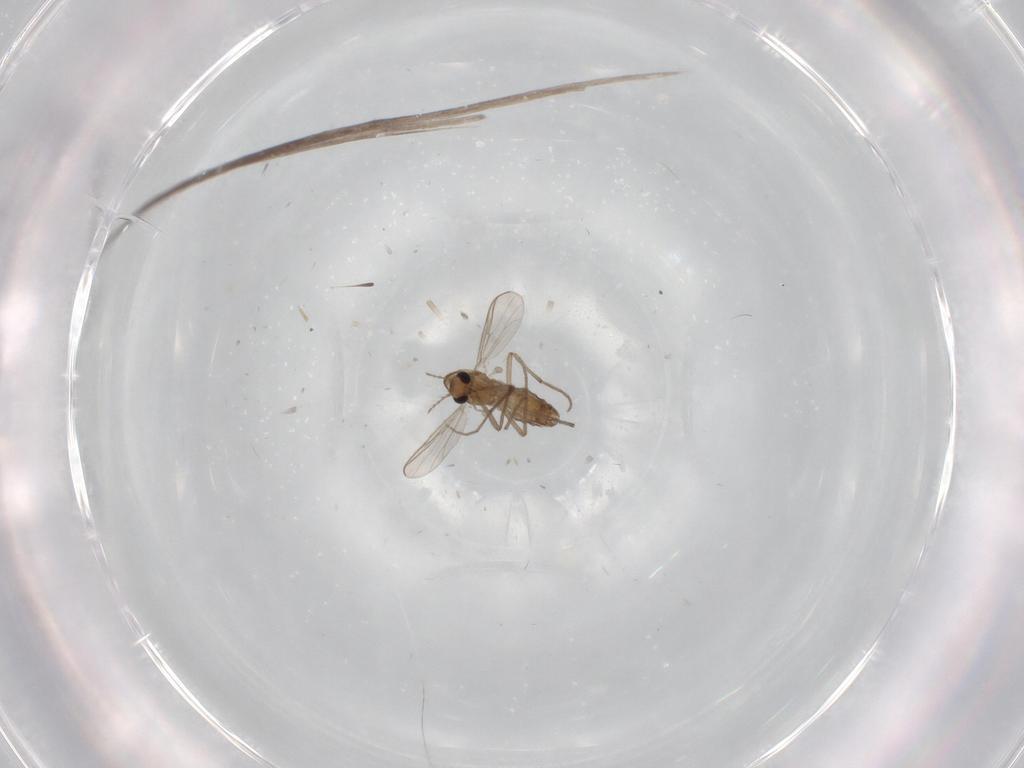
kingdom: Animalia
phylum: Arthropoda
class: Insecta
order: Diptera
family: Chironomidae
